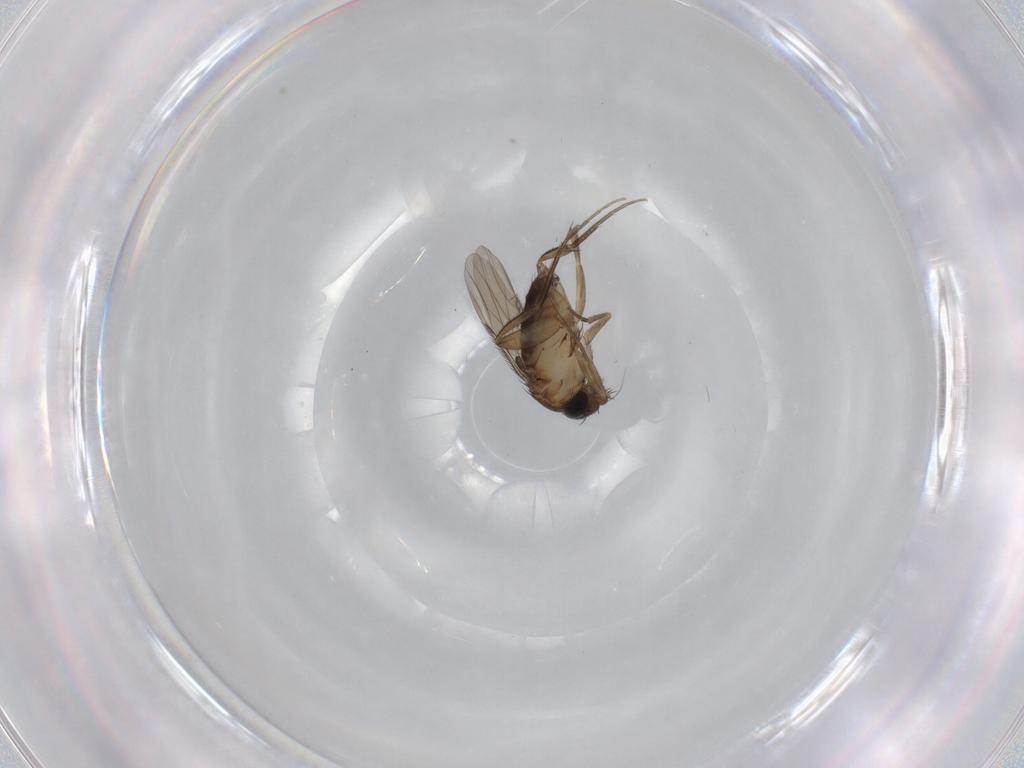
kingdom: Animalia
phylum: Arthropoda
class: Insecta
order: Diptera
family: Phoridae
